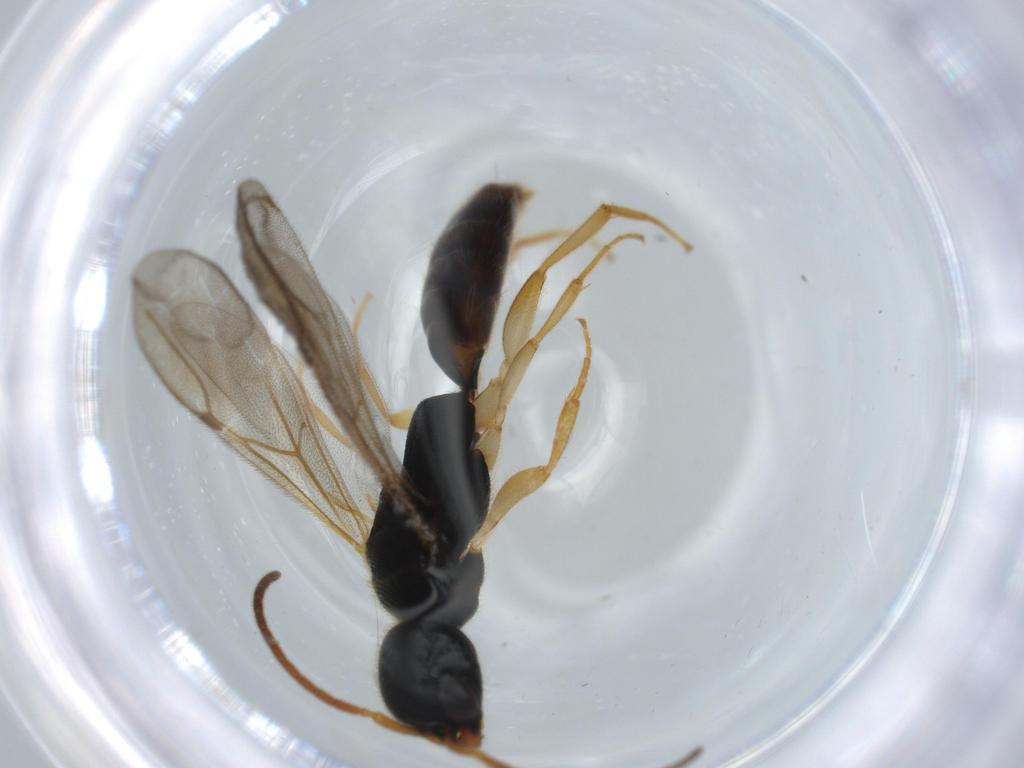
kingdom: Animalia
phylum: Arthropoda
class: Insecta
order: Hymenoptera
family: Bethylidae
